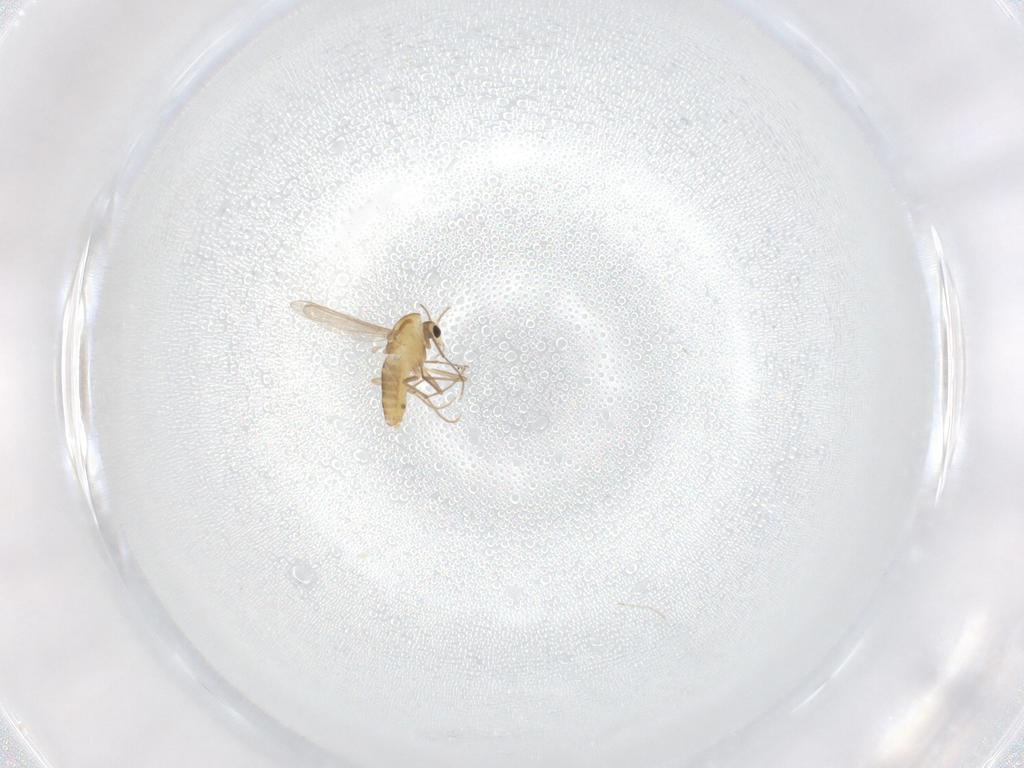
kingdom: Animalia
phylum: Arthropoda
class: Insecta
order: Diptera
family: Chironomidae
